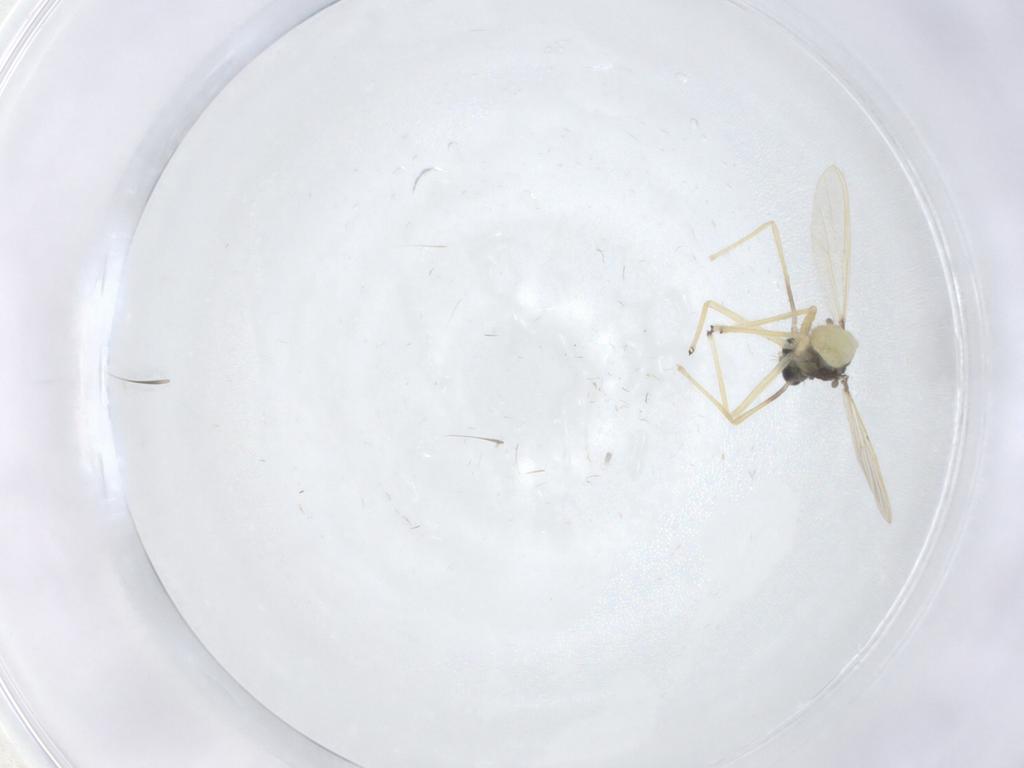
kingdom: Animalia
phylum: Arthropoda
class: Insecta
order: Diptera
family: Chironomidae
